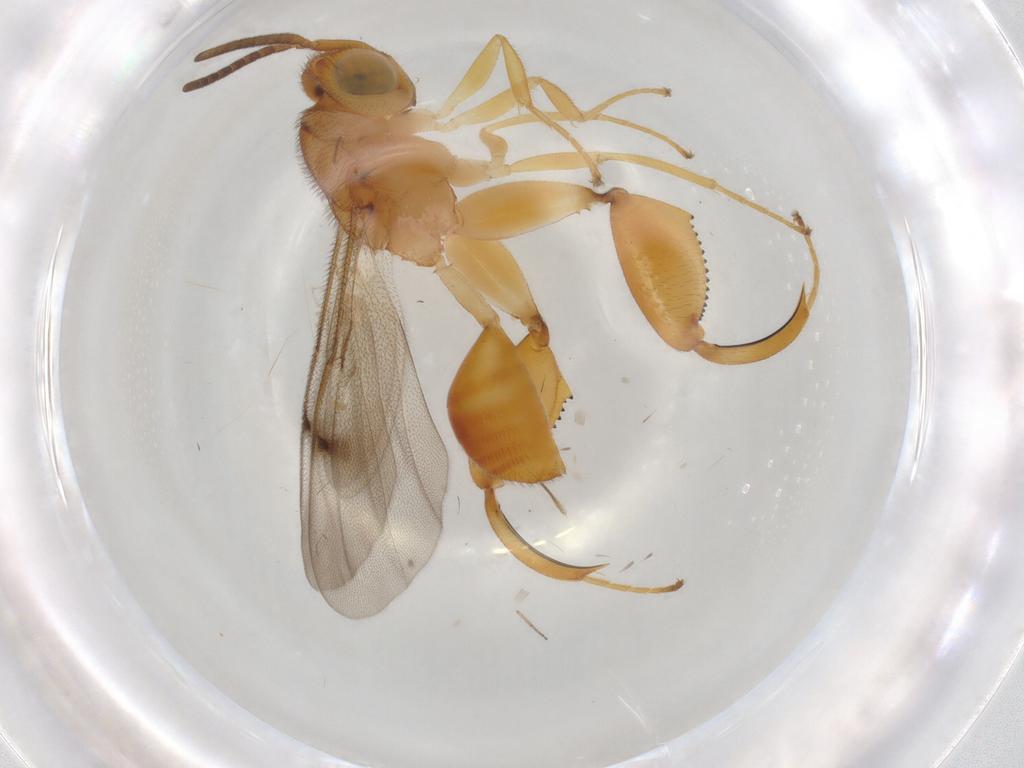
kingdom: Animalia
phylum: Arthropoda
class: Insecta
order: Hymenoptera
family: Chalcididae
